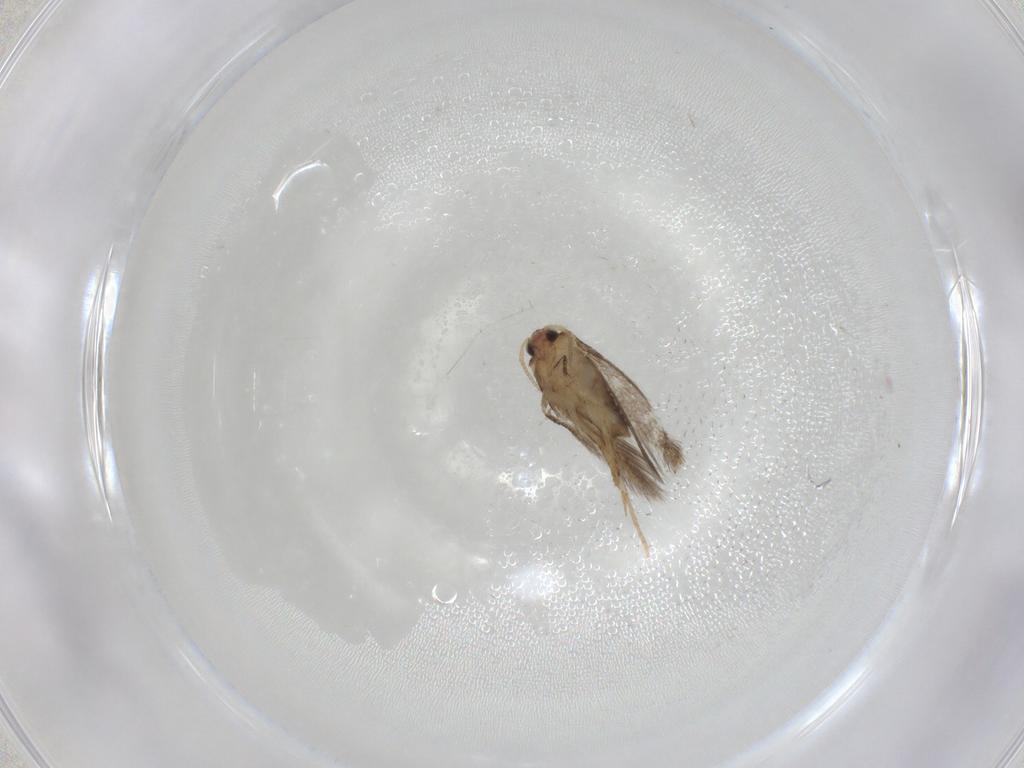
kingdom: Animalia
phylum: Arthropoda
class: Insecta
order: Lepidoptera
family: Nepticulidae
